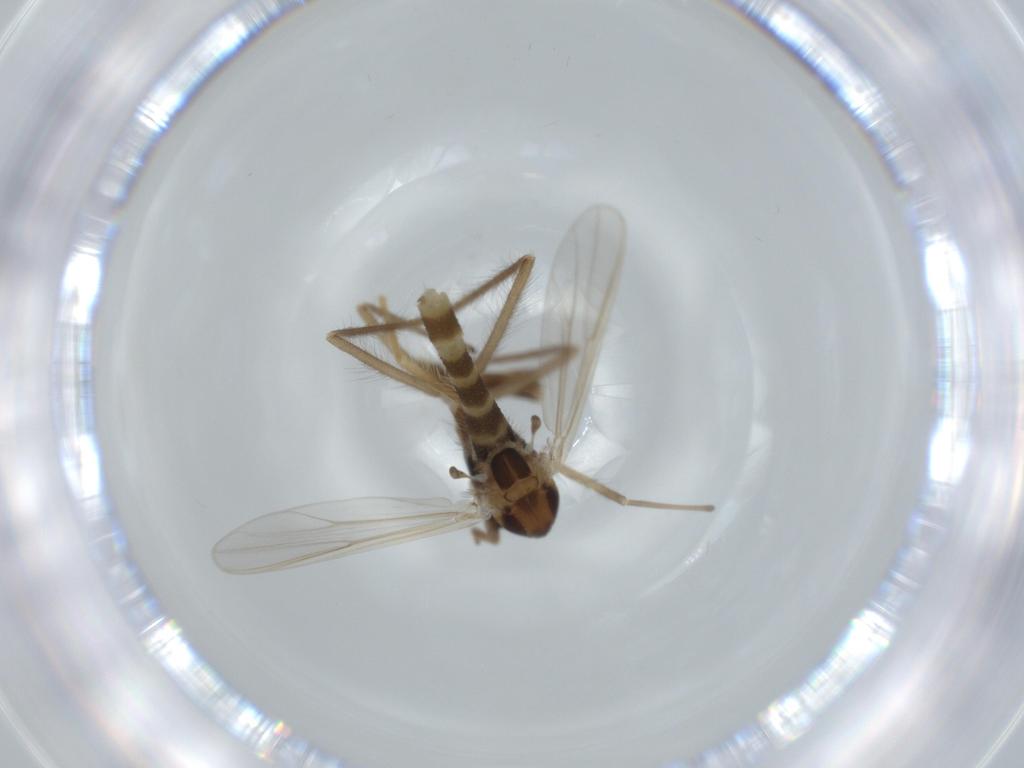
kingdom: Animalia
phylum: Arthropoda
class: Insecta
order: Diptera
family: Chironomidae
